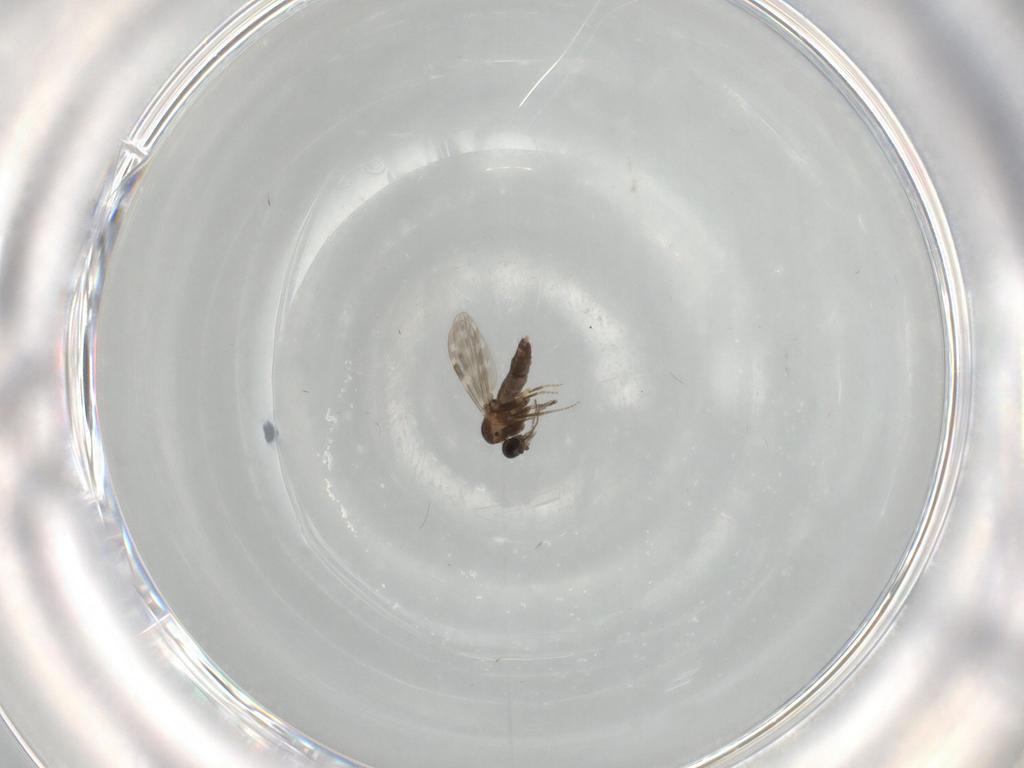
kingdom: Animalia
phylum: Arthropoda
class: Insecta
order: Diptera
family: Ceratopogonidae
